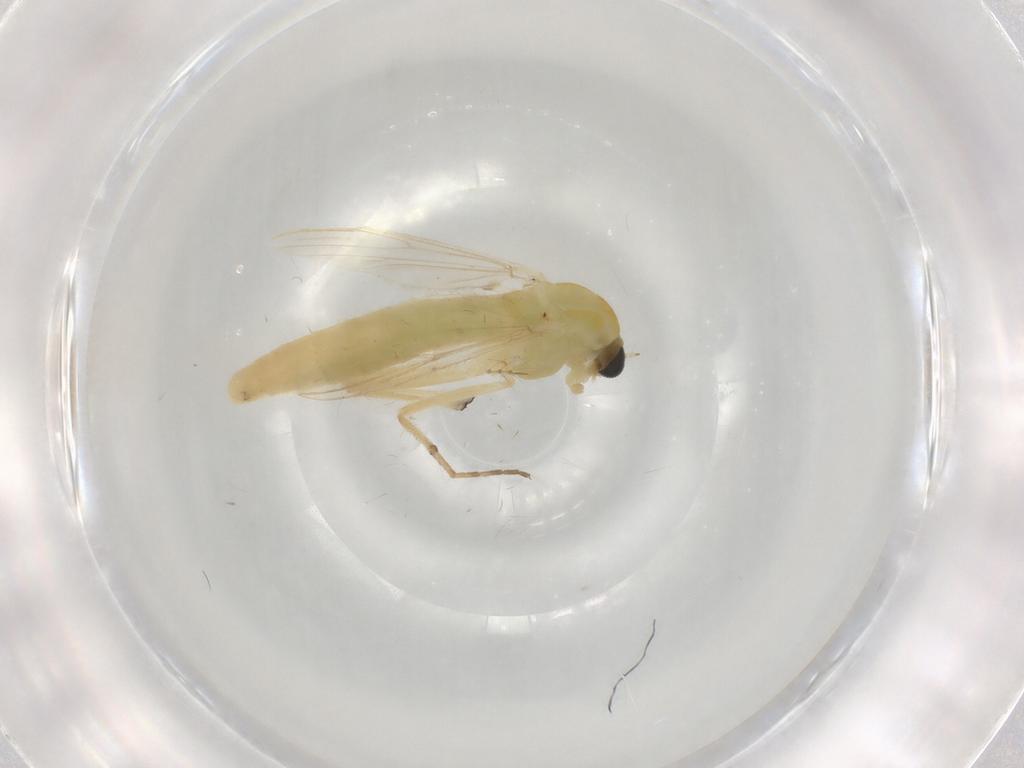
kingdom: Animalia
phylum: Arthropoda
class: Insecta
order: Diptera
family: Chironomidae
